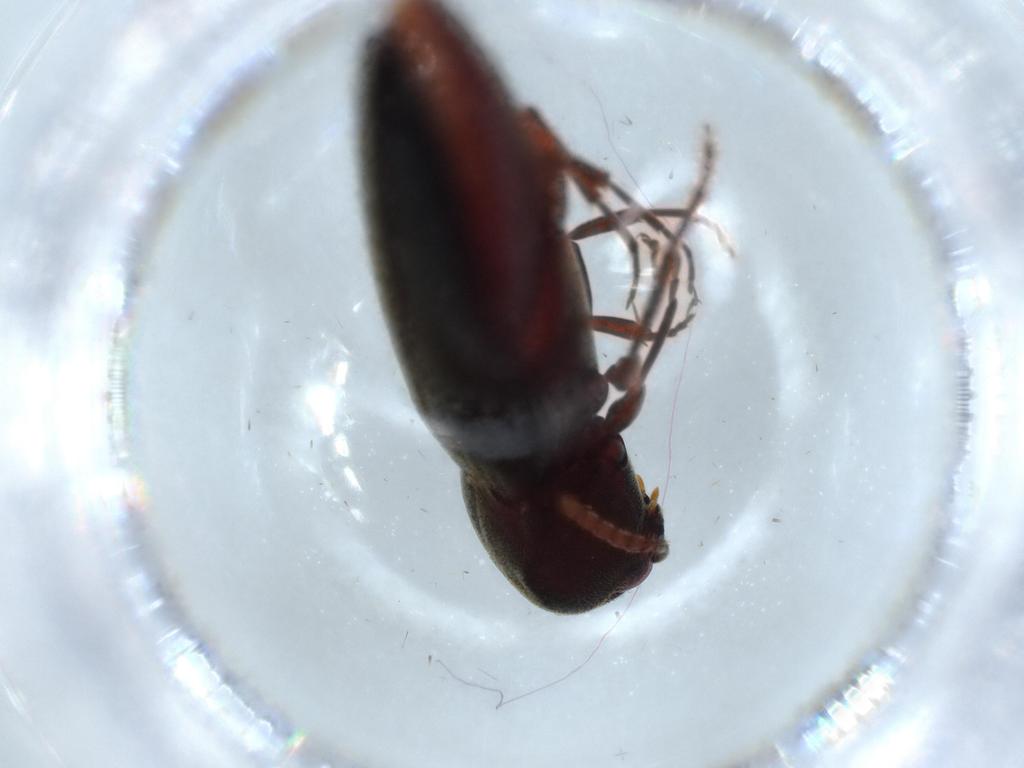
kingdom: Animalia
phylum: Arthropoda
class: Insecta
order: Coleoptera
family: Eucnemidae
